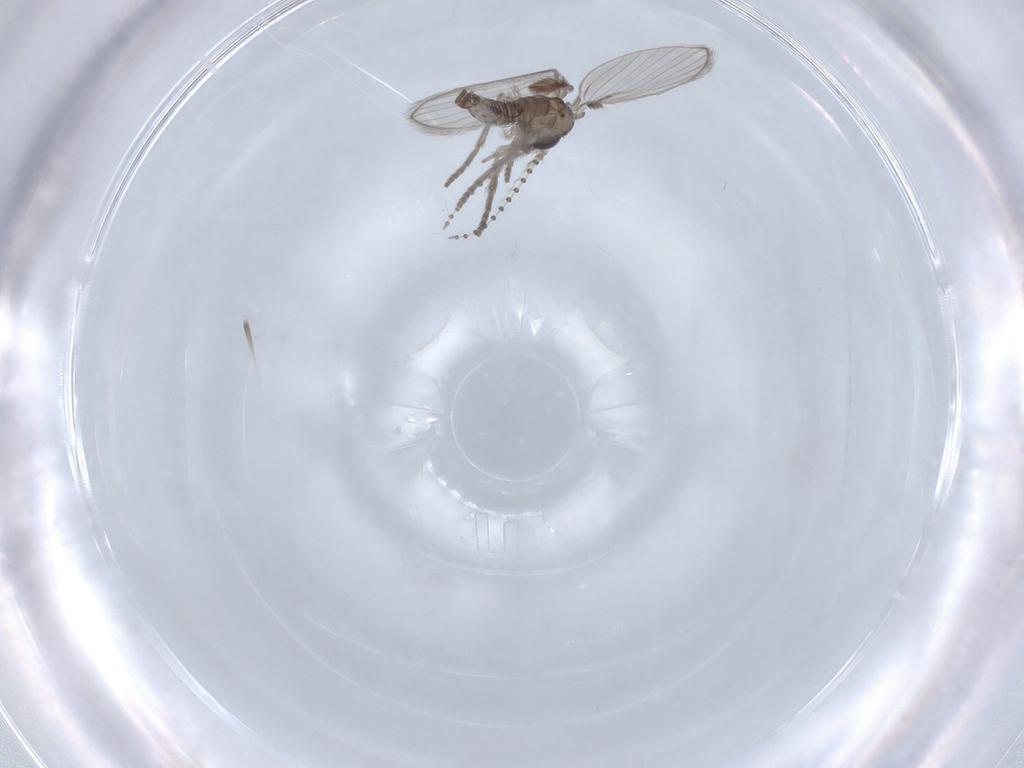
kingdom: Animalia
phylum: Arthropoda
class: Insecta
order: Diptera
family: Psychodidae
